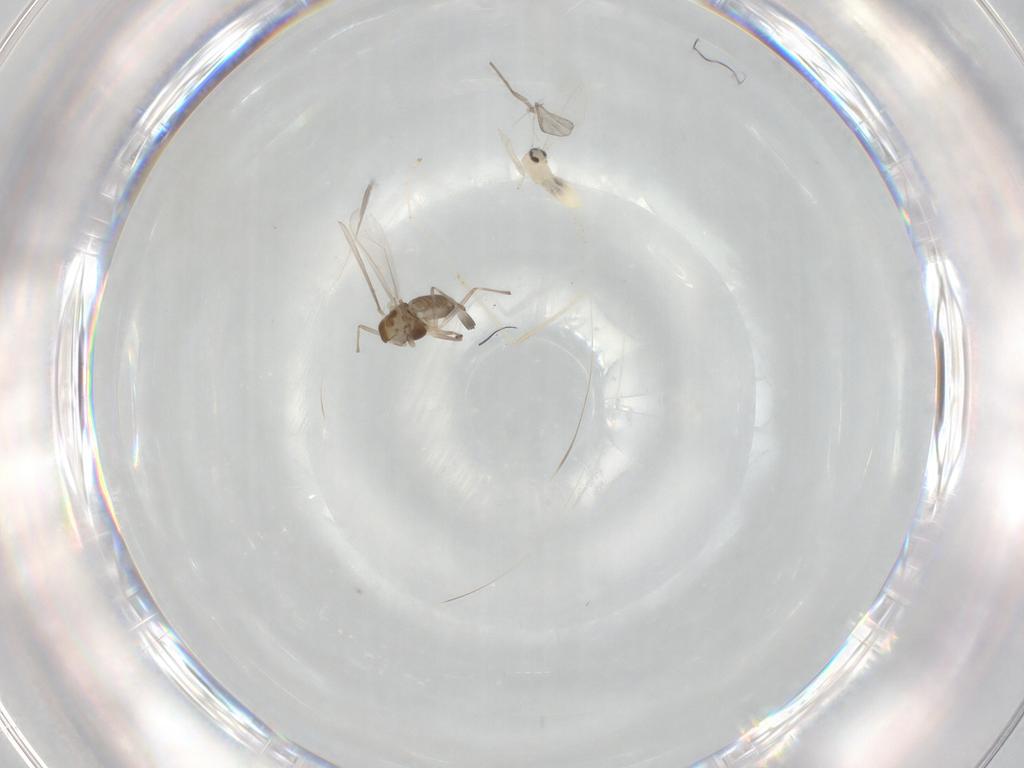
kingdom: Animalia
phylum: Arthropoda
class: Insecta
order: Diptera
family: Chironomidae
